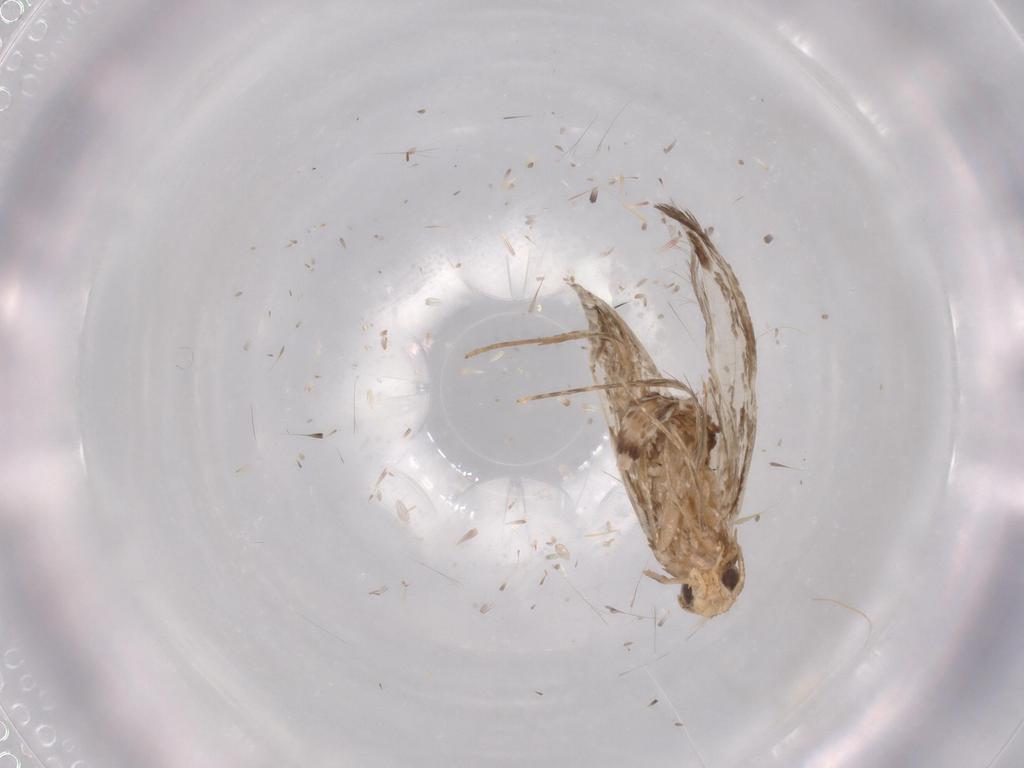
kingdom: Animalia
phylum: Arthropoda
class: Insecta
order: Lepidoptera
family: Tineidae
